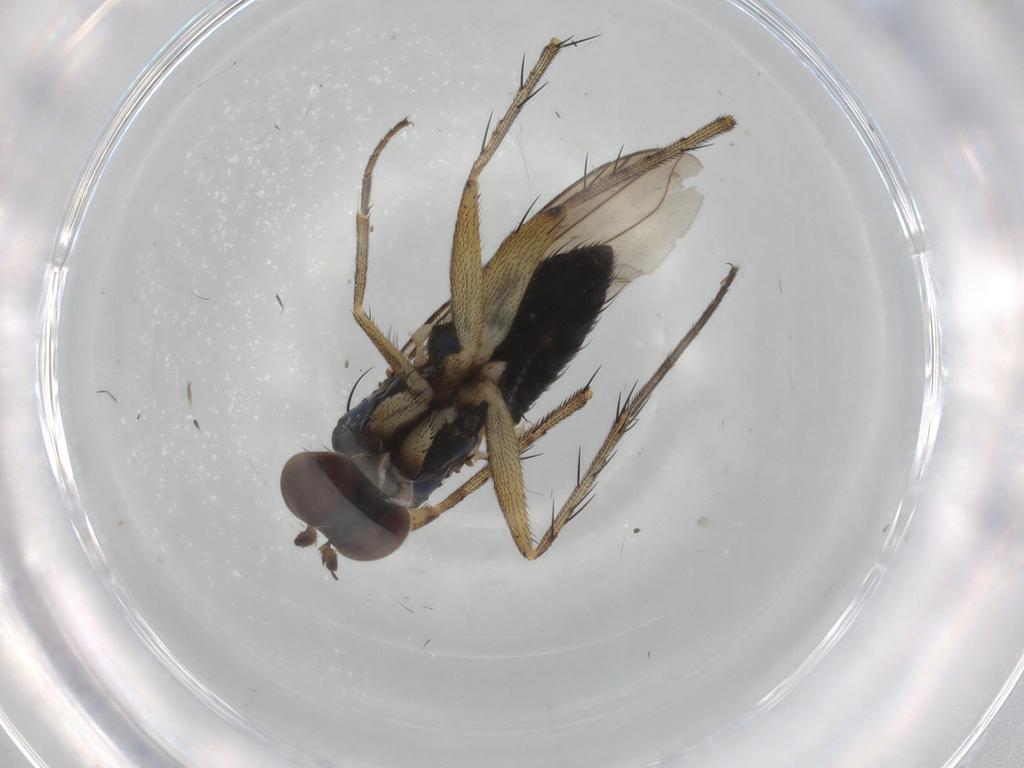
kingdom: Animalia
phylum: Arthropoda
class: Insecta
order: Diptera
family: Dolichopodidae
